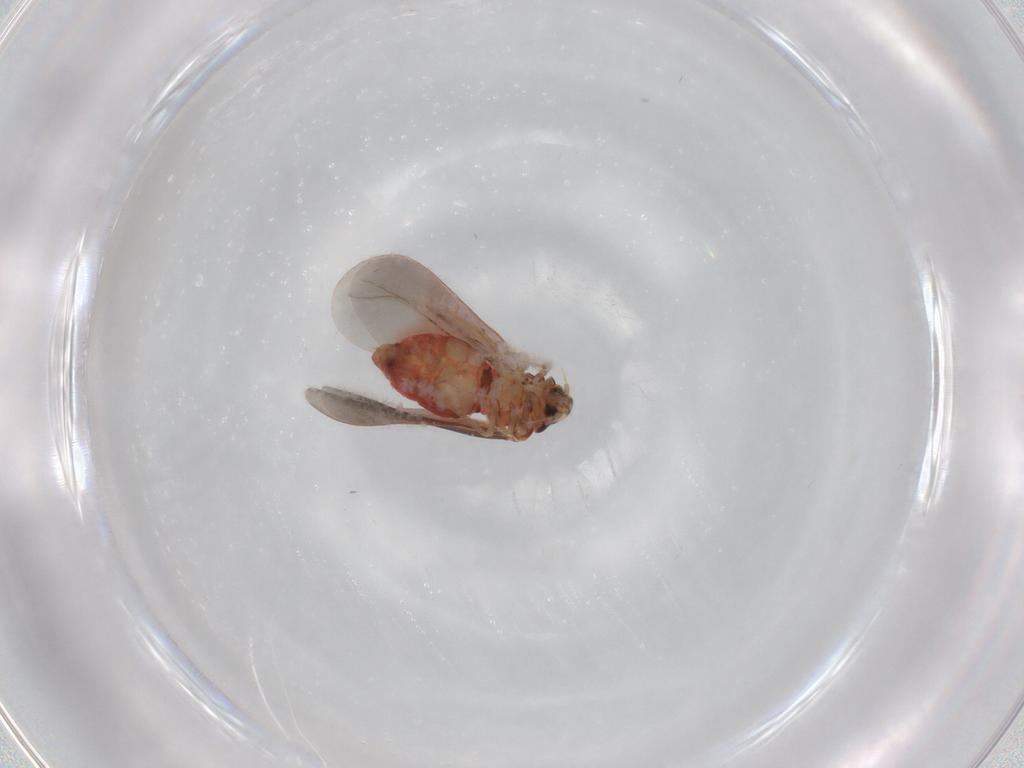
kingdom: Animalia
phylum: Arthropoda
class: Insecta
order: Hemiptera
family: Aleyrodidae
